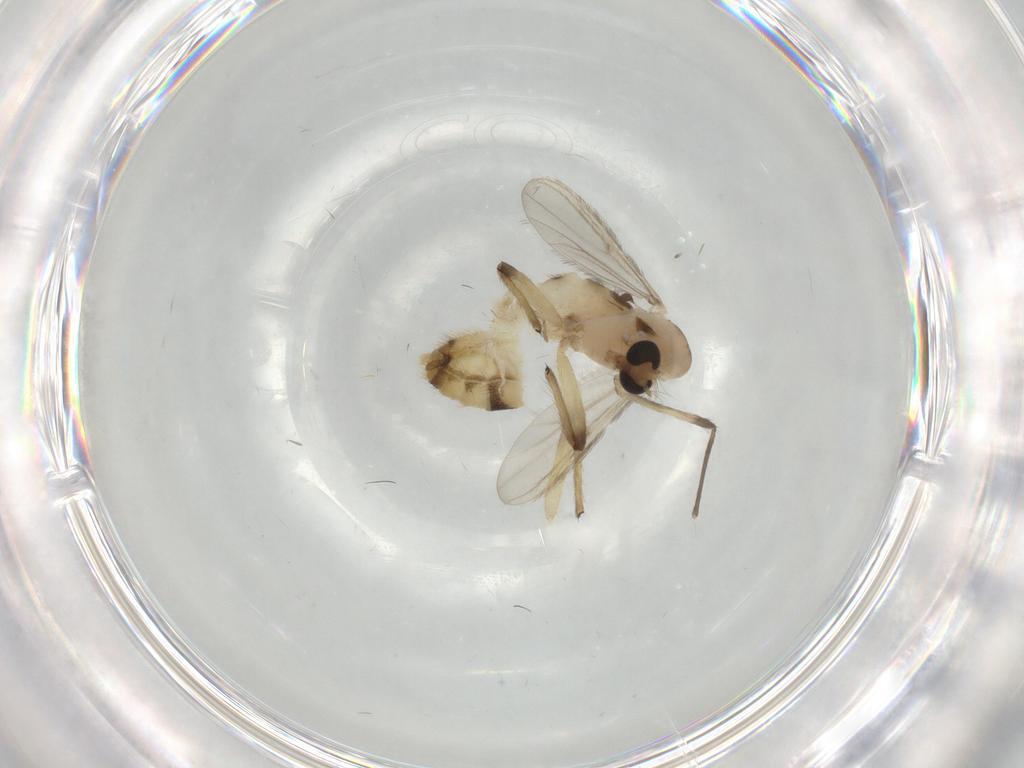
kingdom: Animalia
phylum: Arthropoda
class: Insecta
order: Diptera
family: Chironomidae
